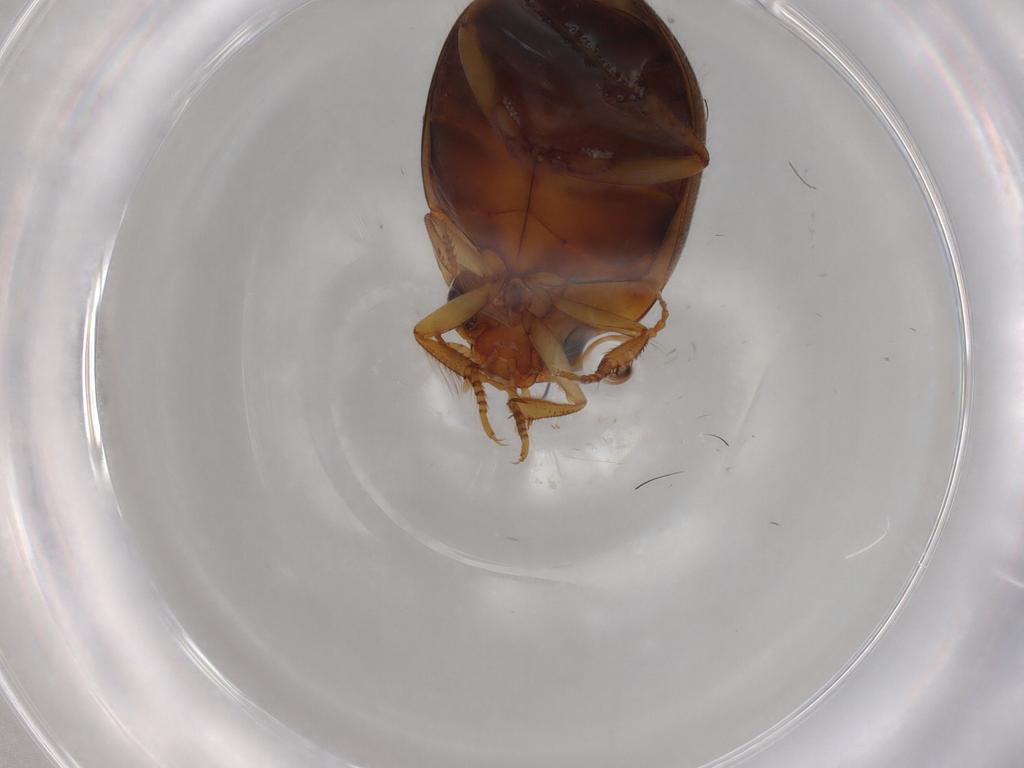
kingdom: Animalia
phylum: Arthropoda
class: Insecta
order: Coleoptera
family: Dytiscidae
